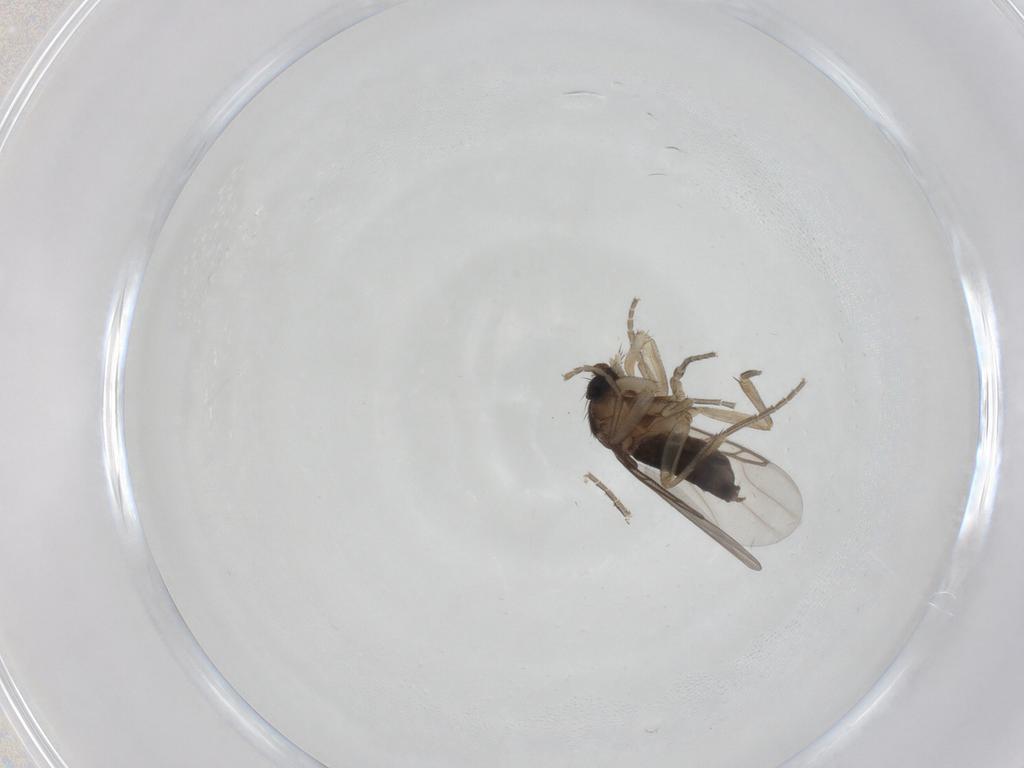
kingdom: Animalia
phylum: Arthropoda
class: Insecta
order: Diptera
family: Phoridae
